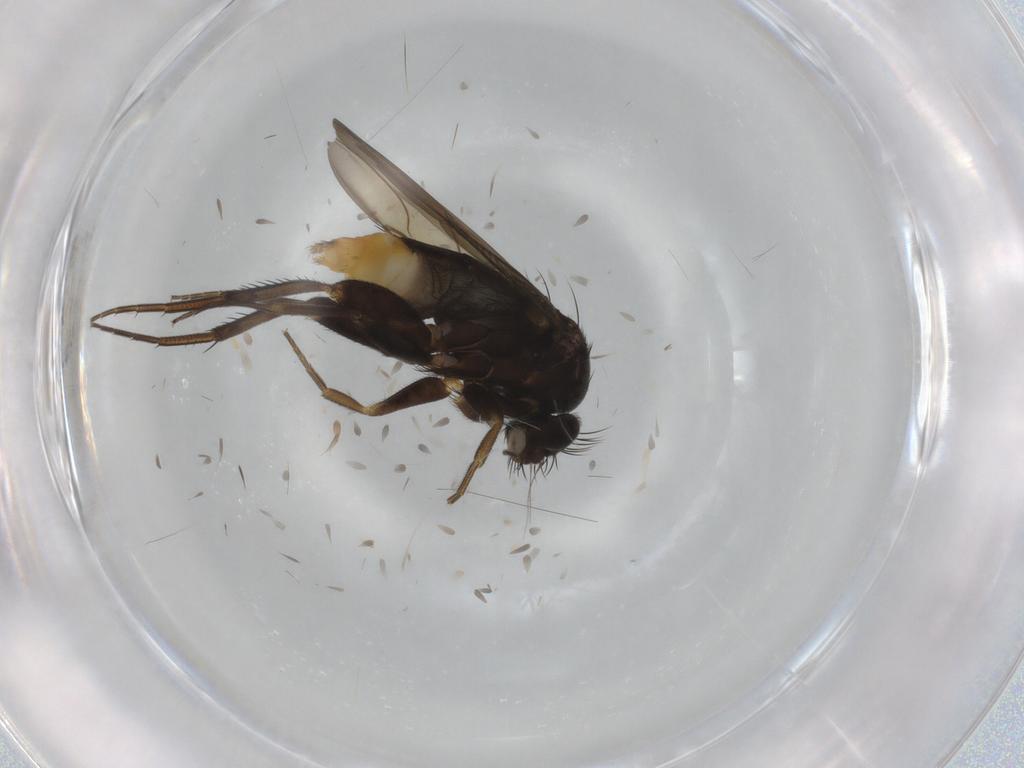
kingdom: Animalia
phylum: Arthropoda
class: Insecta
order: Diptera
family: Phoridae
